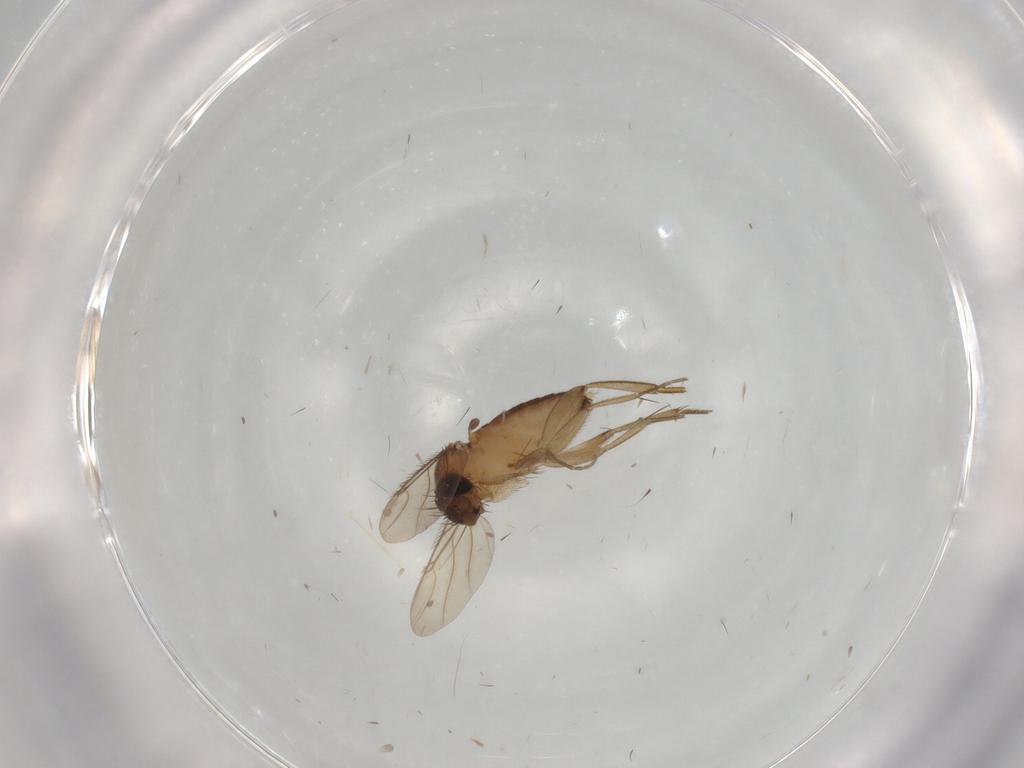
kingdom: Animalia
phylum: Arthropoda
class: Insecta
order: Diptera
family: Phoridae
